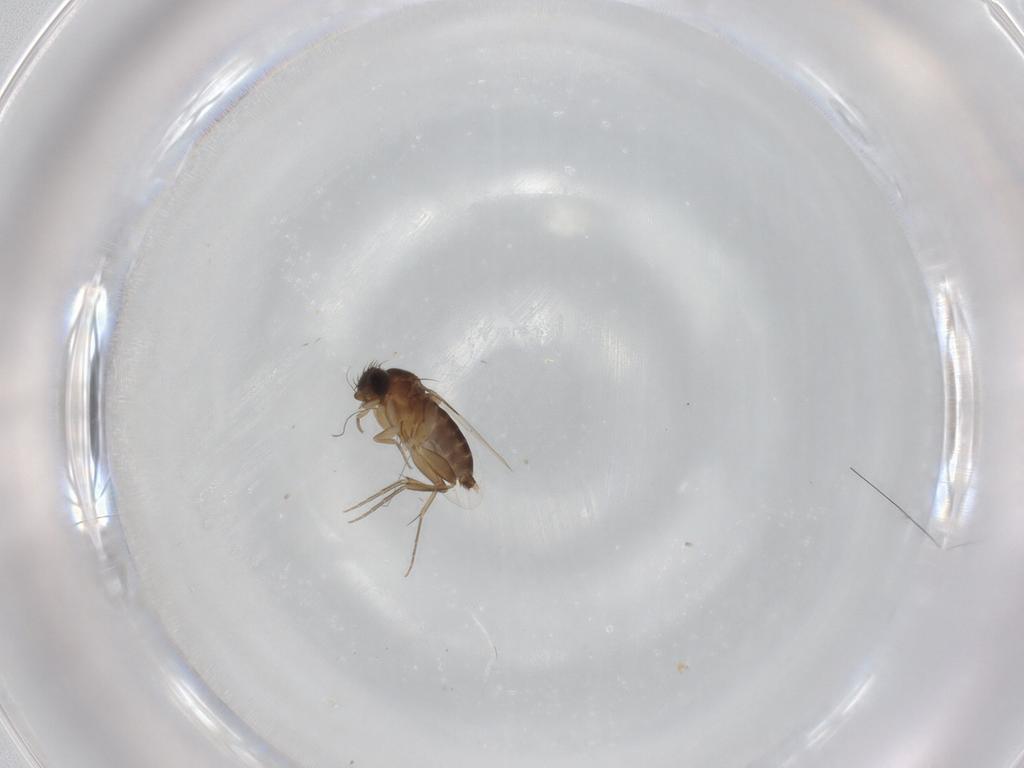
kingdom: Animalia
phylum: Arthropoda
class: Insecta
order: Diptera
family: Phoridae
